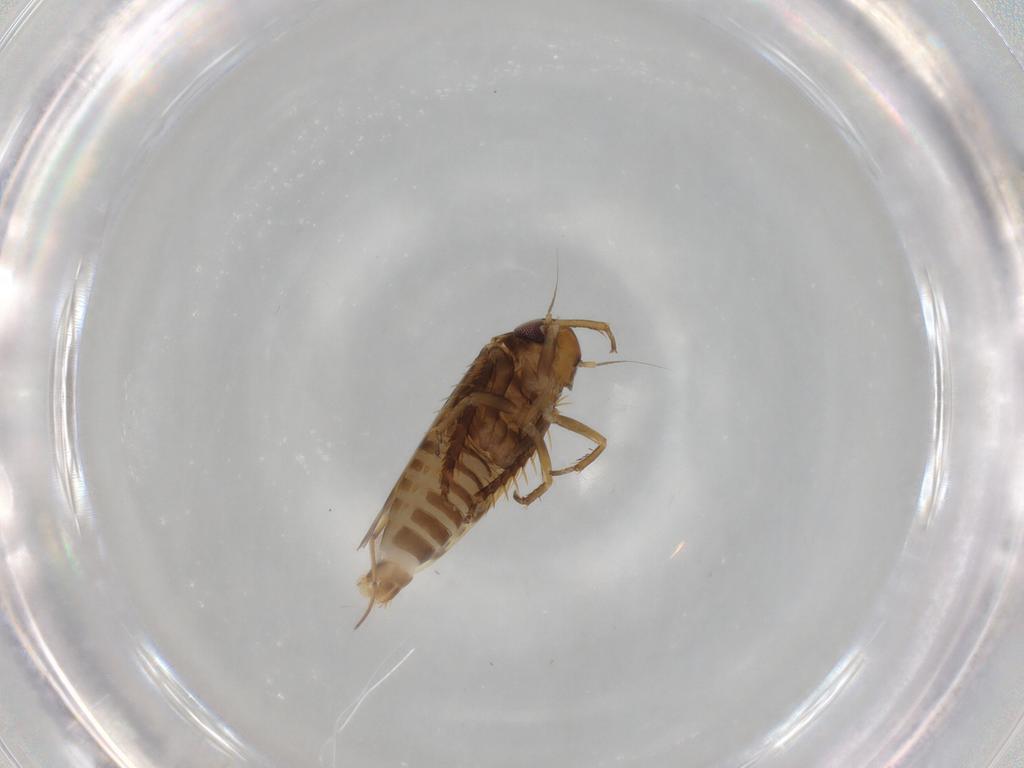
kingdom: Animalia
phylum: Arthropoda
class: Insecta
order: Hemiptera
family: Cicadellidae
